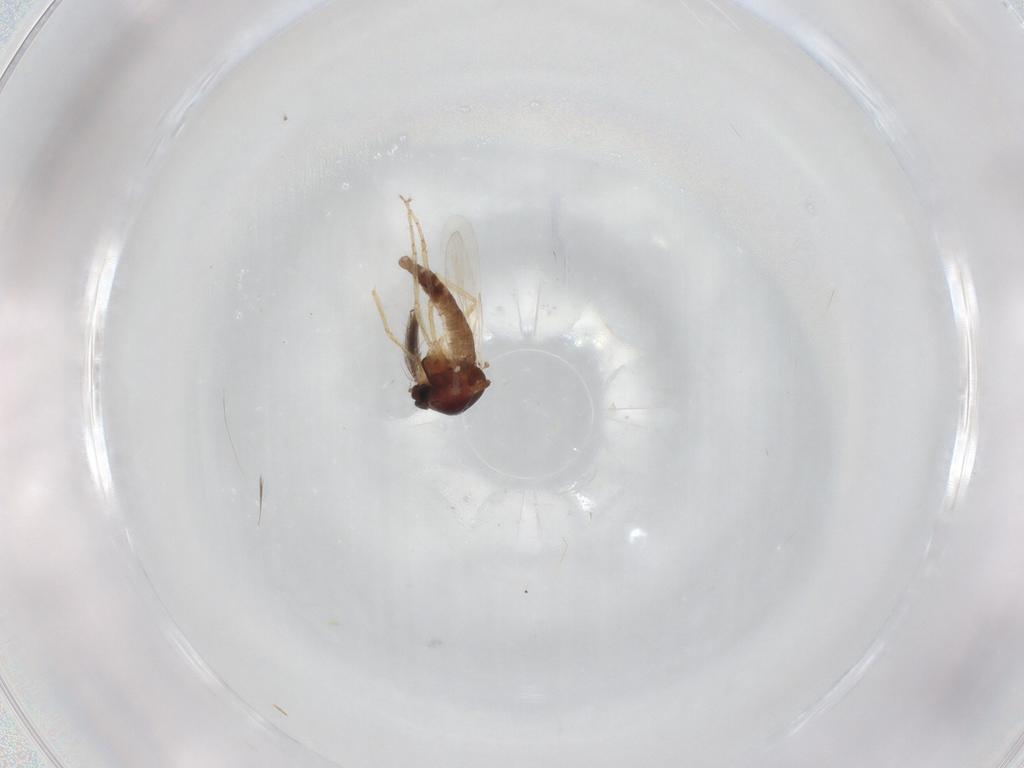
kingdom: Animalia
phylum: Arthropoda
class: Insecta
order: Diptera
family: Ceratopogonidae
